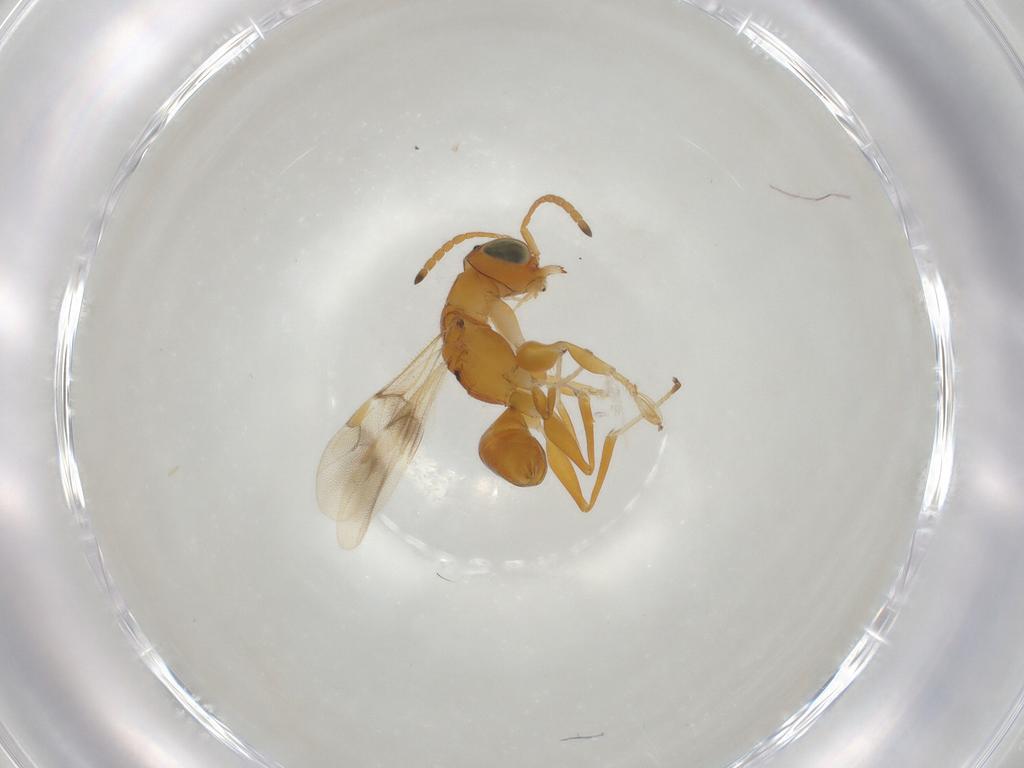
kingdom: Animalia
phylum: Arthropoda
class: Insecta
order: Hymenoptera
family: Dryinidae
